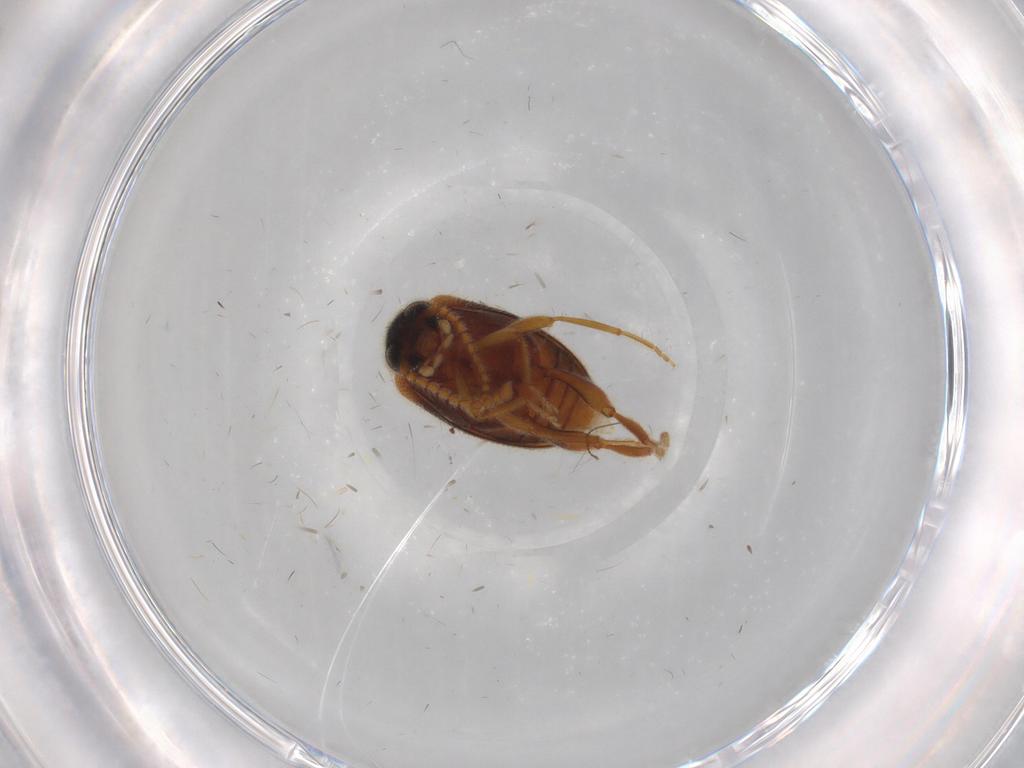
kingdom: Animalia
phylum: Arthropoda
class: Insecta
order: Coleoptera
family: Aderidae
